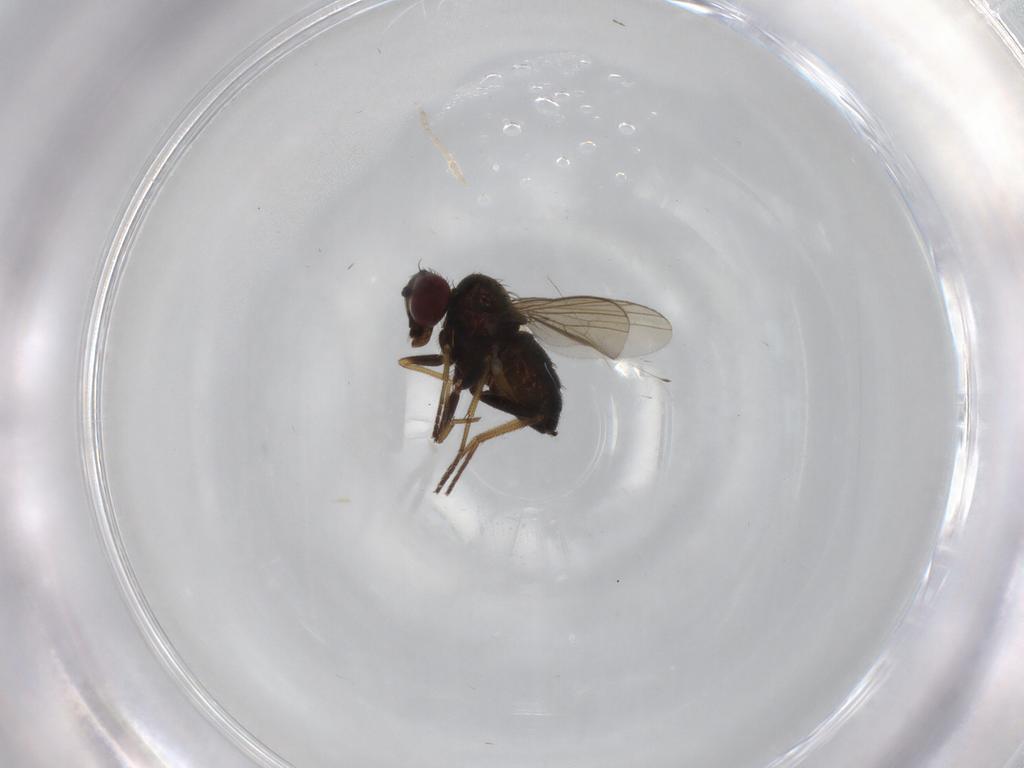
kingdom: Animalia
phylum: Arthropoda
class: Insecta
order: Diptera
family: Dolichopodidae
